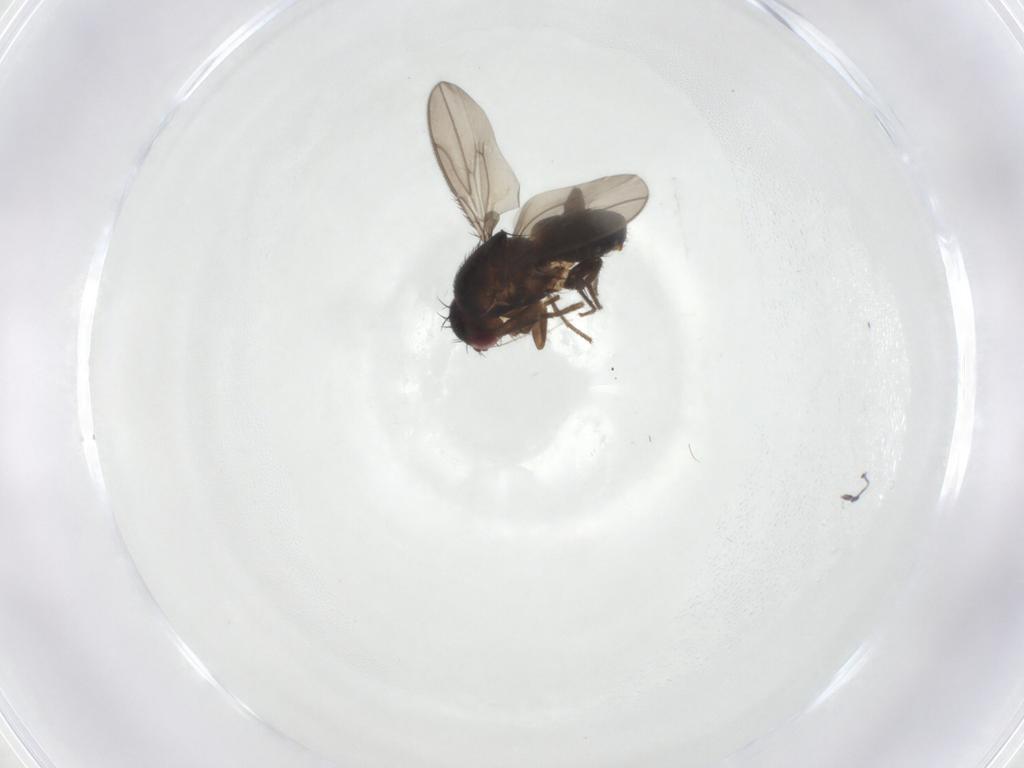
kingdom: Animalia
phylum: Arthropoda
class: Insecta
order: Diptera
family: Sphaeroceridae
